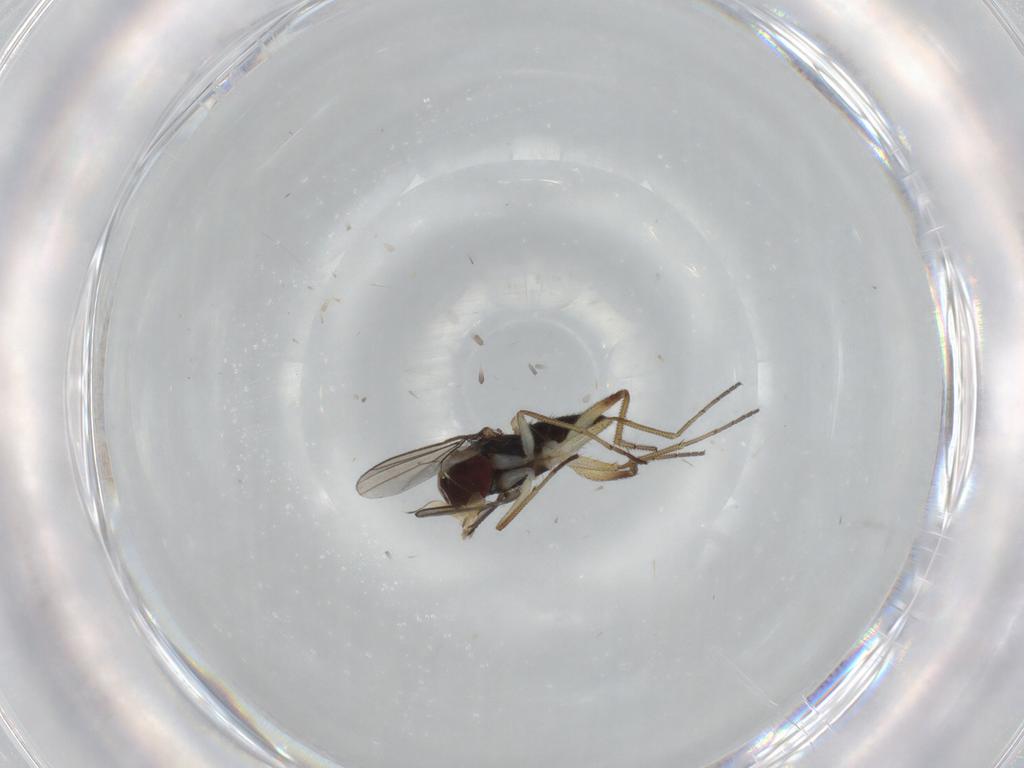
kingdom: Animalia
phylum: Arthropoda
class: Insecta
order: Diptera
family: Dolichopodidae
